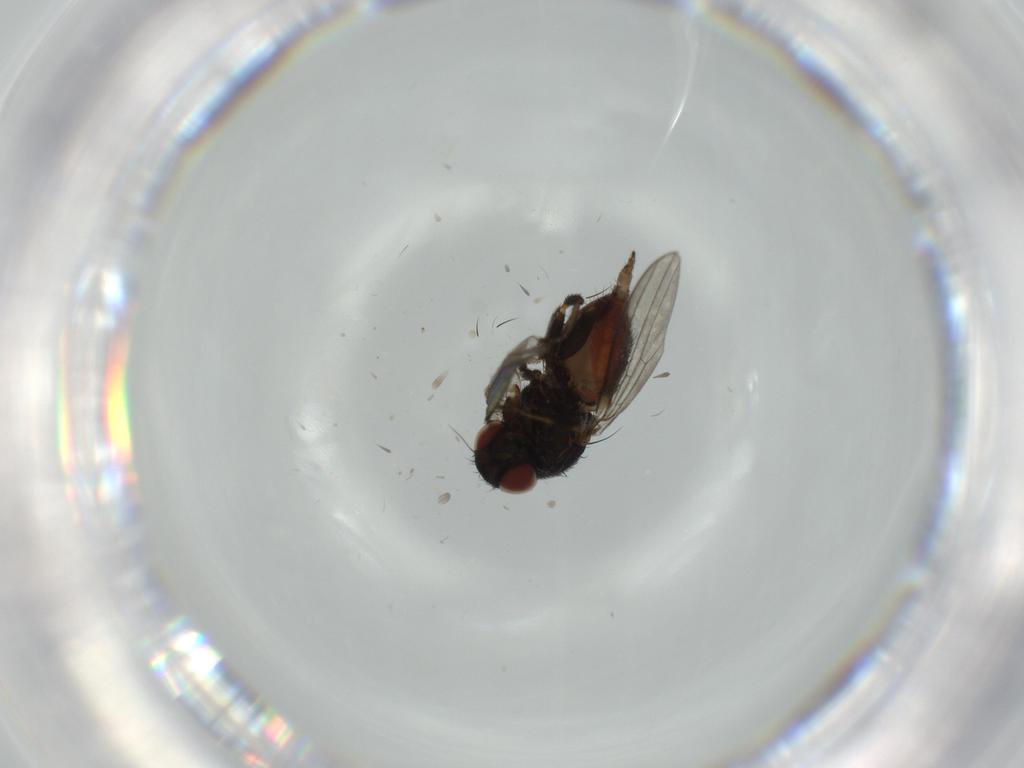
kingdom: Animalia
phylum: Arthropoda
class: Insecta
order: Diptera
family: Milichiidae
